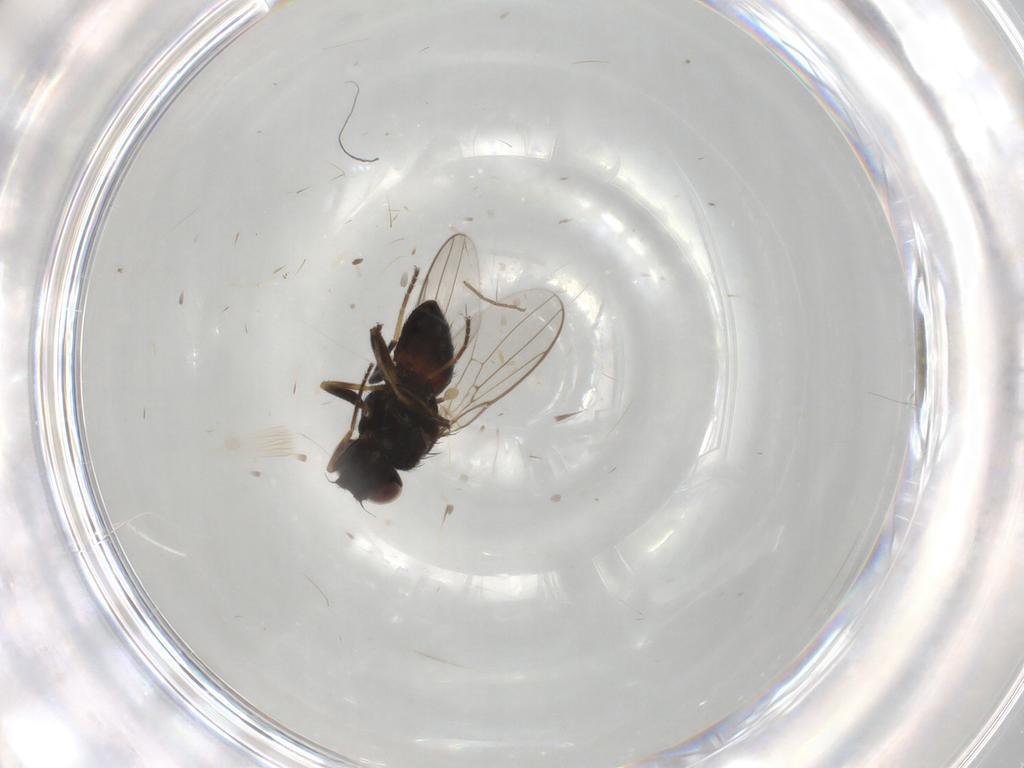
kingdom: Animalia
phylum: Arthropoda
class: Insecta
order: Diptera
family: Chloropidae
